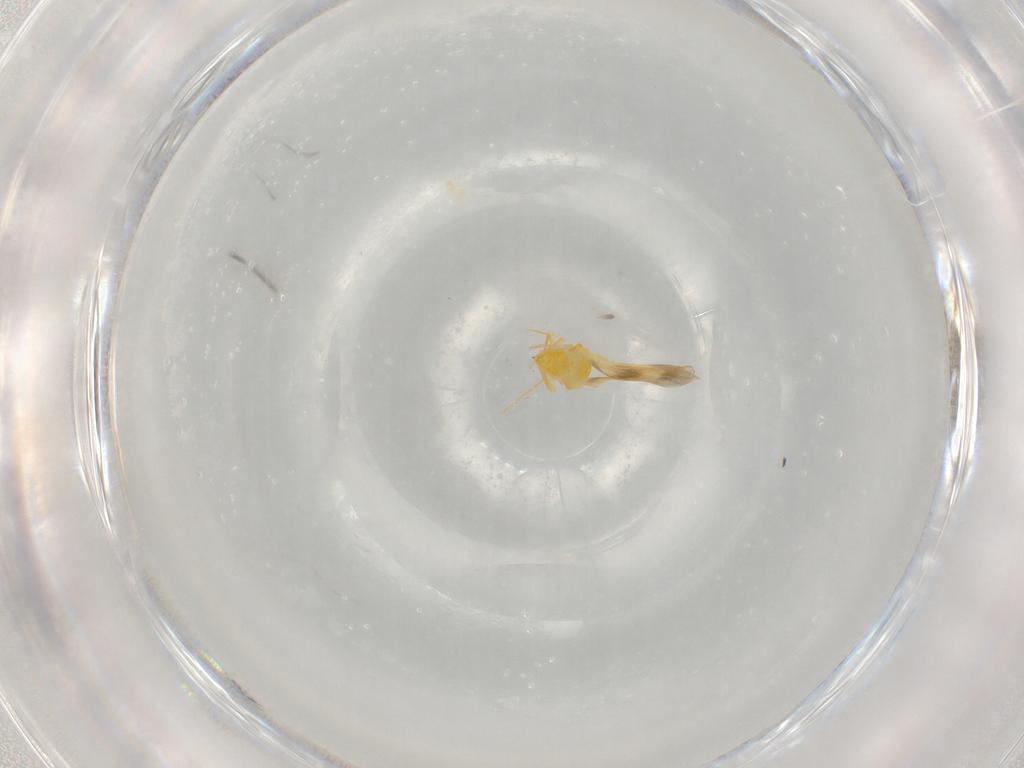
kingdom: Animalia
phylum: Arthropoda
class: Insecta
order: Hemiptera
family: Aleyrodidae
